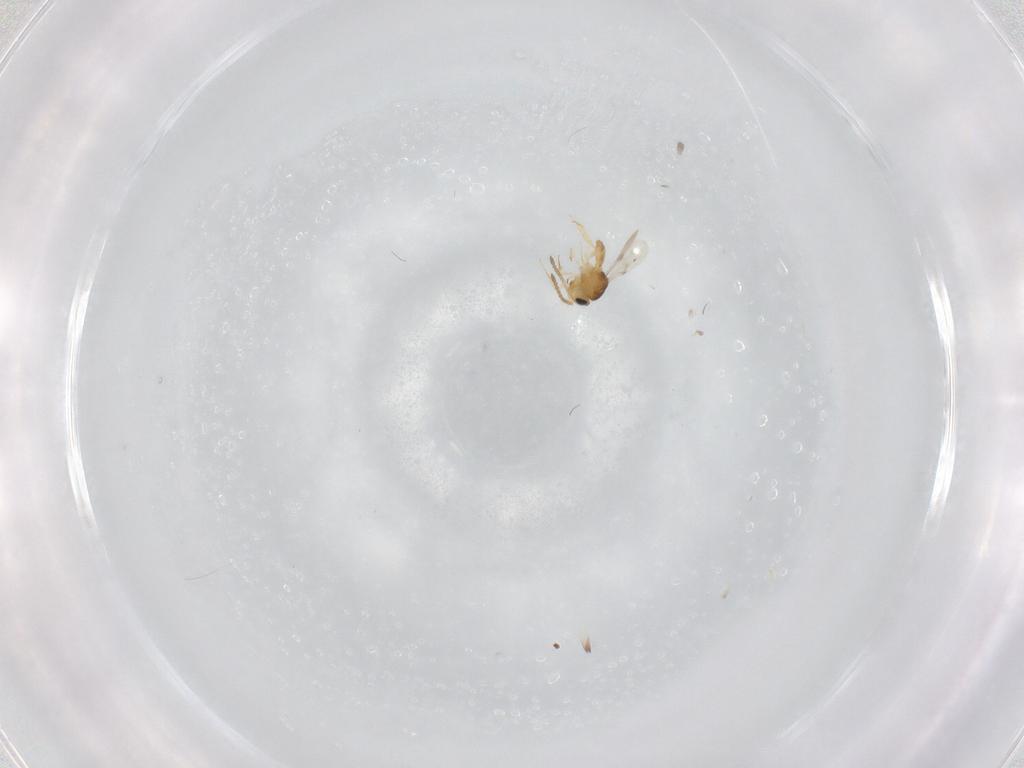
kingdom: Animalia
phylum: Arthropoda
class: Insecta
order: Hymenoptera
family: Scelionidae
